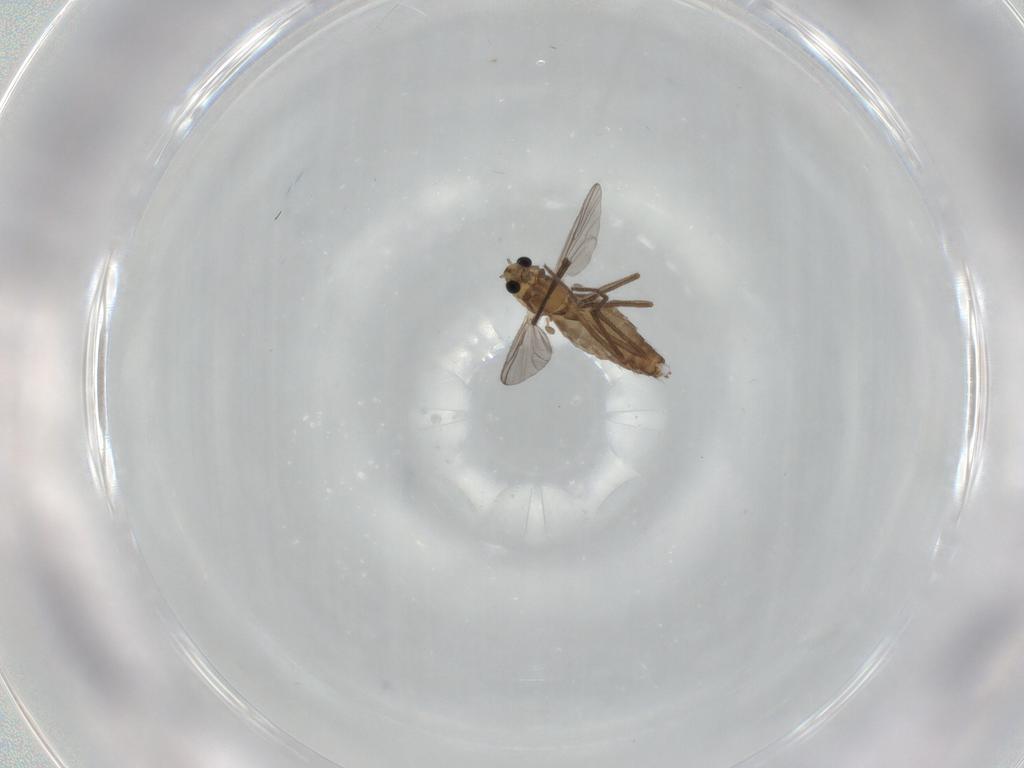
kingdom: Animalia
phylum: Arthropoda
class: Insecta
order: Diptera
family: Chironomidae
